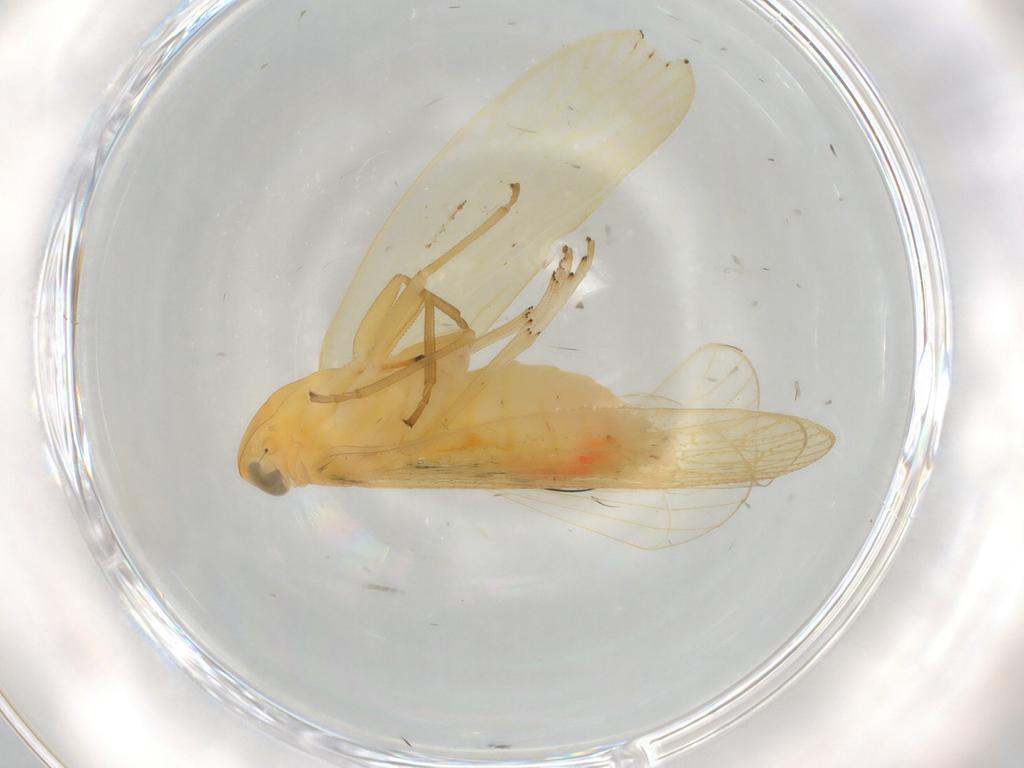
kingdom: Animalia
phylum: Arthropoda
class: Insecta
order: Hemiptera
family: Cixiidae
